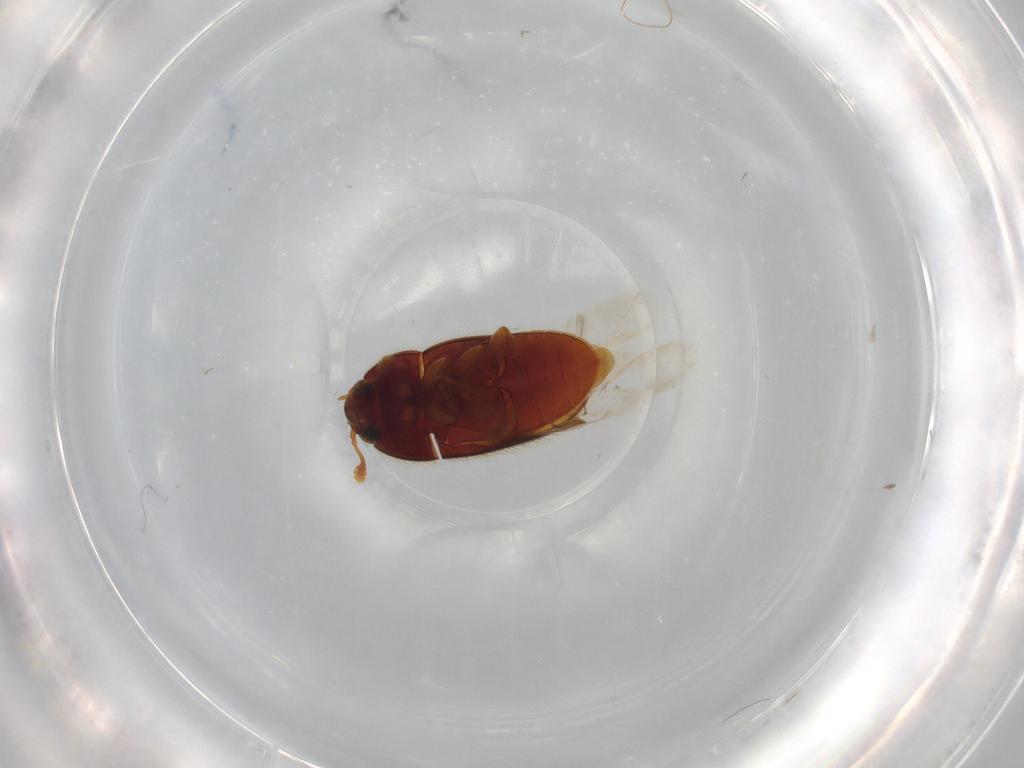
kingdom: Animalia
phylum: Arthropoda
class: Insecta
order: Coleoptera
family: Biphyllidae
